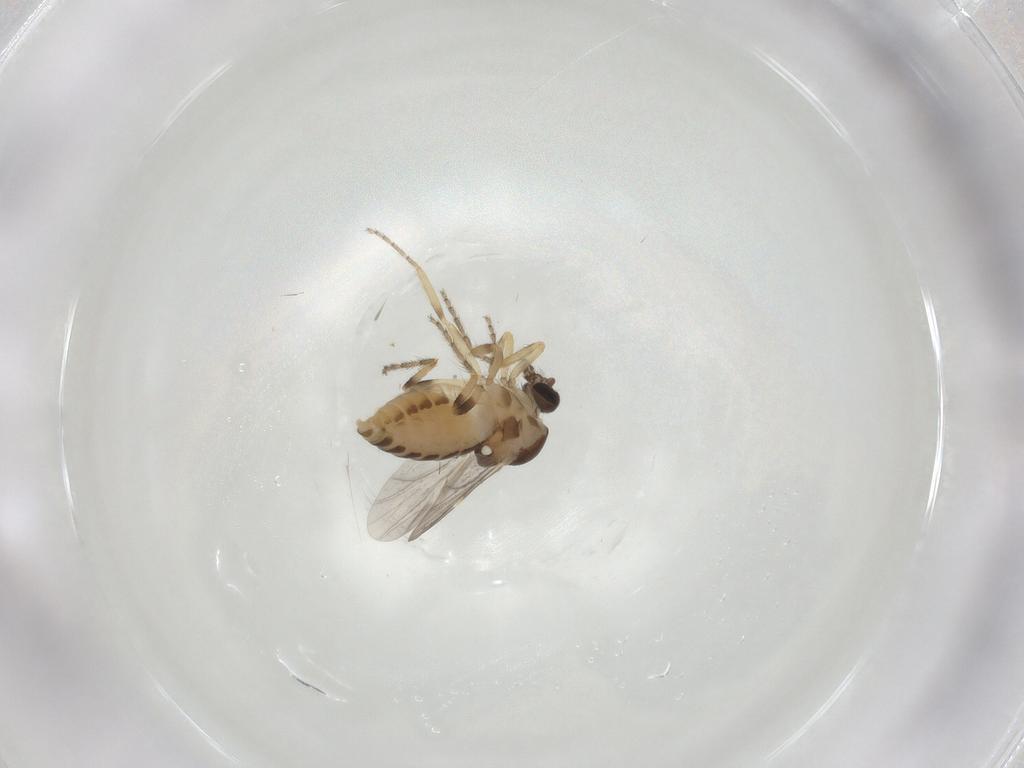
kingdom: Animalia
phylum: Arthropoda
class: Insecta
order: Diptera
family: Ceratopogonidae
